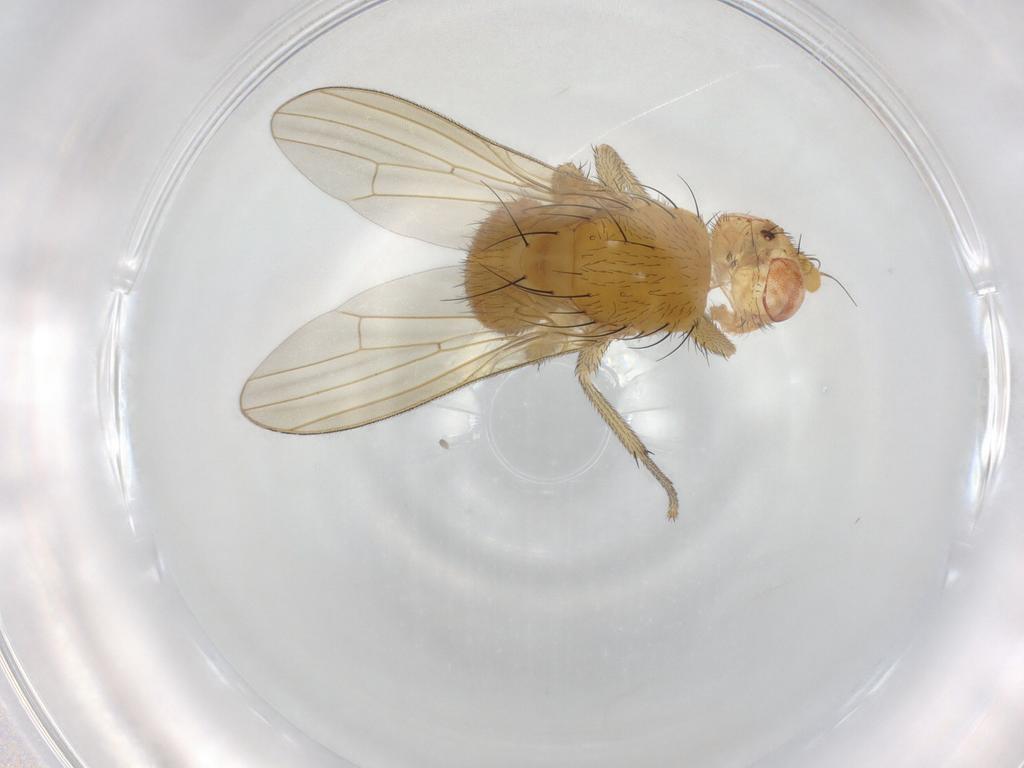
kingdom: Animalia
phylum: Arthropoda
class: Insecta
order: Diptera
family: Lauxaniidae
